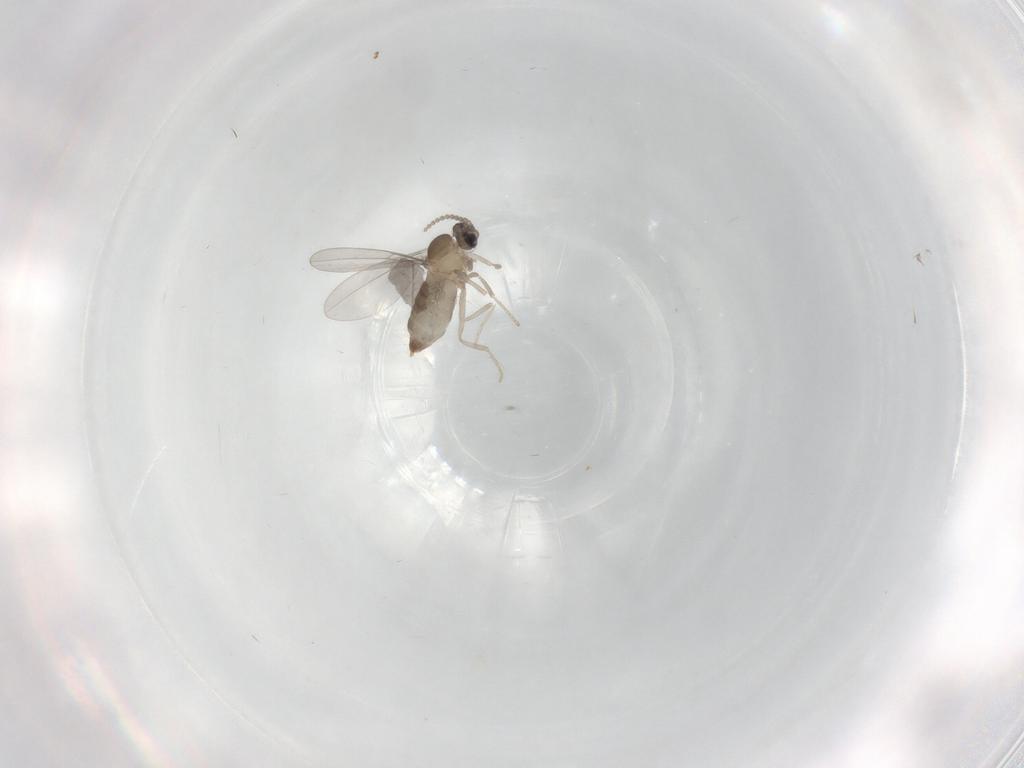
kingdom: Animalia
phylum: Arthropoda
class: Insecta
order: Diptera
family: Cecidomyiidae
